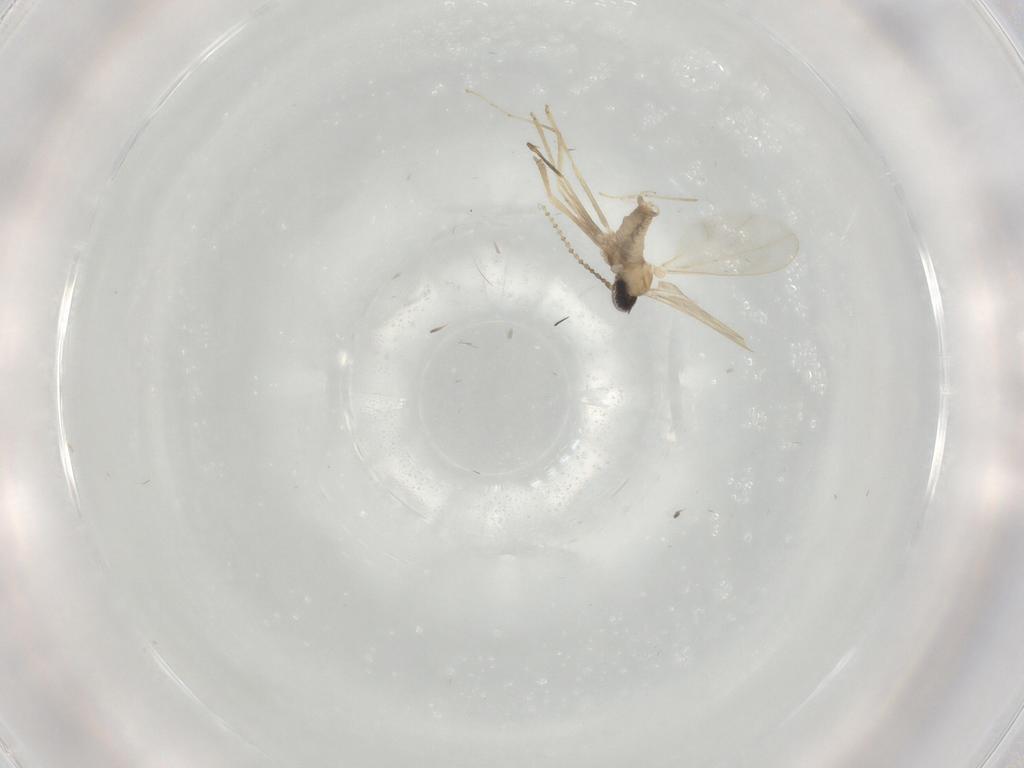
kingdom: Animalia
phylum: Arthropoda
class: Insecta
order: Diptera
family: Cecidomyiidae
